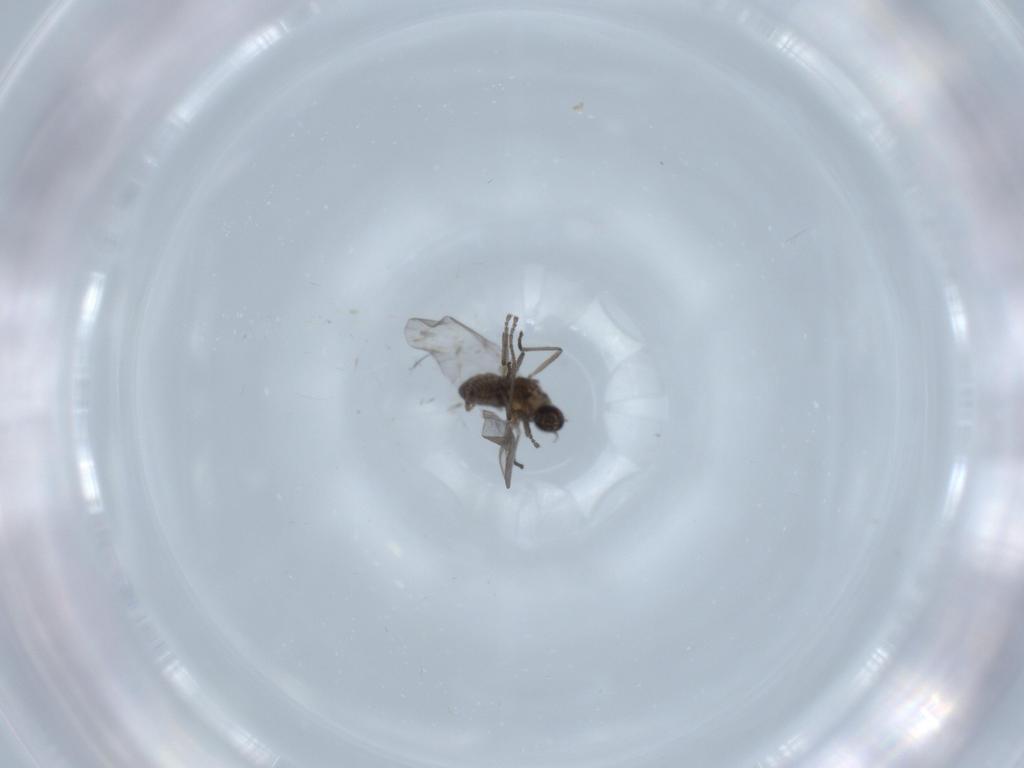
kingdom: Animalia
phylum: Arthropoda
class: Insecta
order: Diptera
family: Cecidomyiidae
